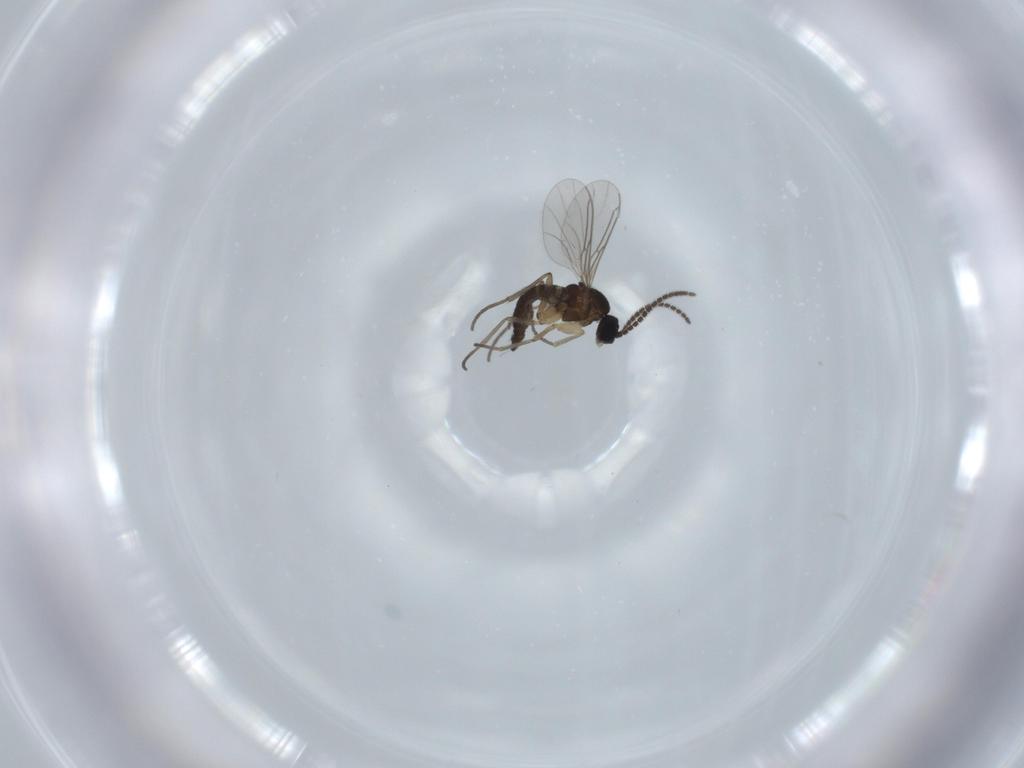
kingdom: Animalia
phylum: Arthropoda
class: Insecta
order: Diptera
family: Sciaridae
